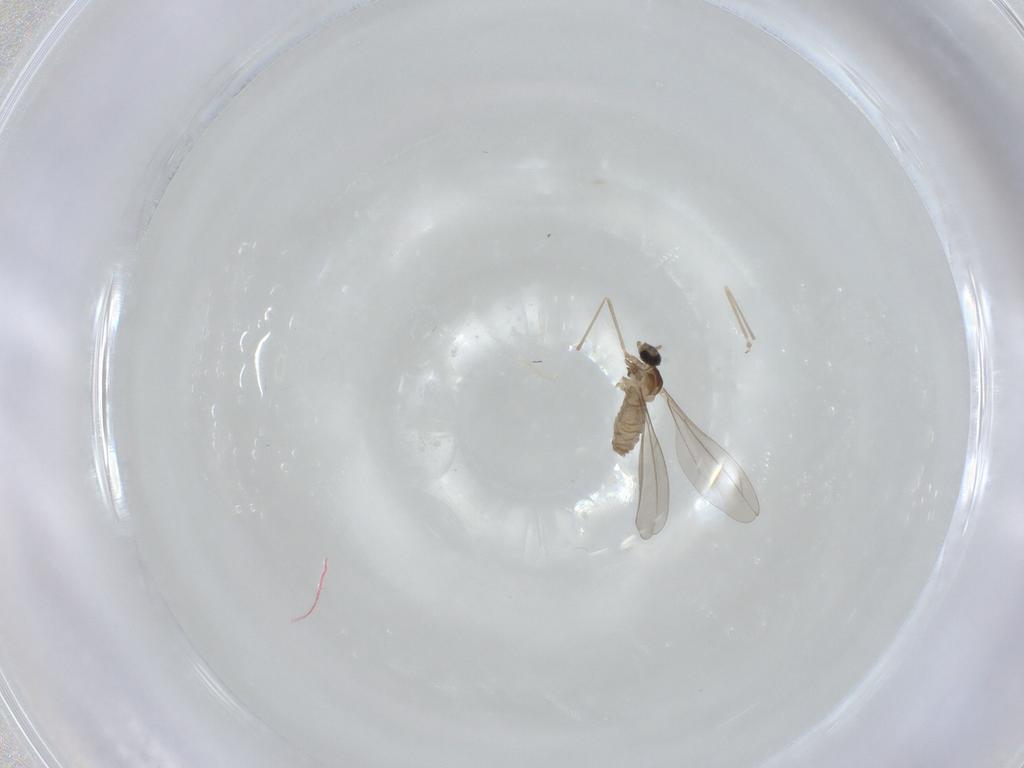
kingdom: Animalia
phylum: Arthropoda
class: Insecta
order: Diptera
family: Cecidomyiidae
